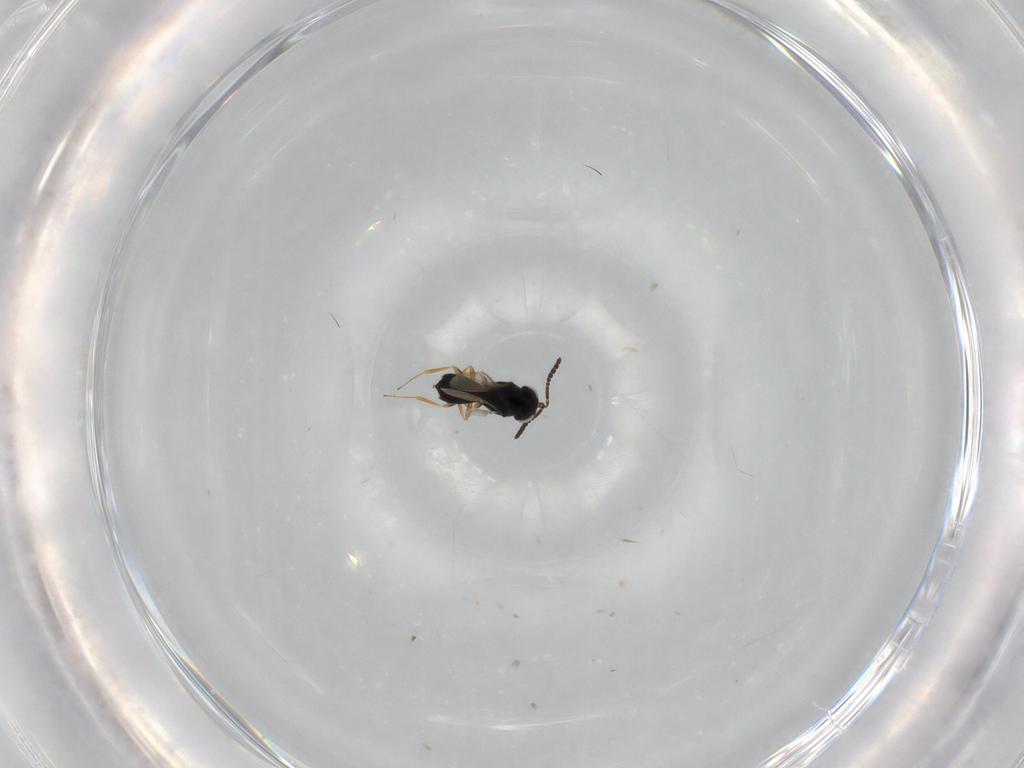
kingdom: Animalia
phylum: Arthropoda
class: Insecta
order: Hymenoptera
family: Scelionidae
